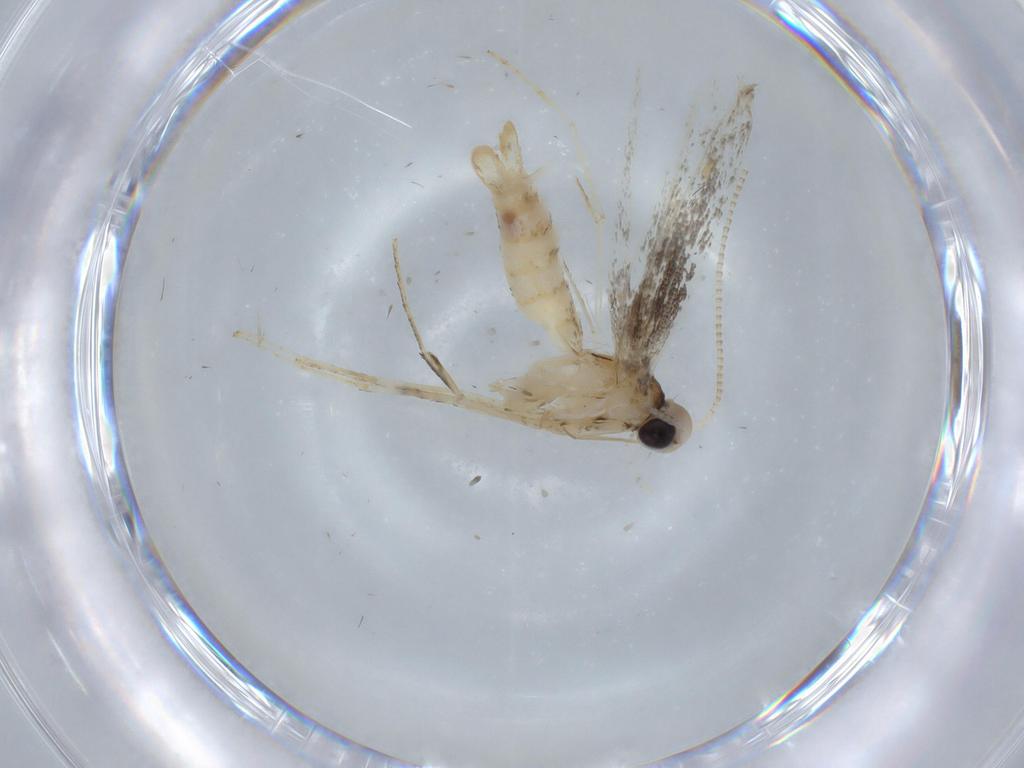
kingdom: Animalia
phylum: Arthropoda
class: Insecta
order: Lepidoptera
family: Gracillariidae
